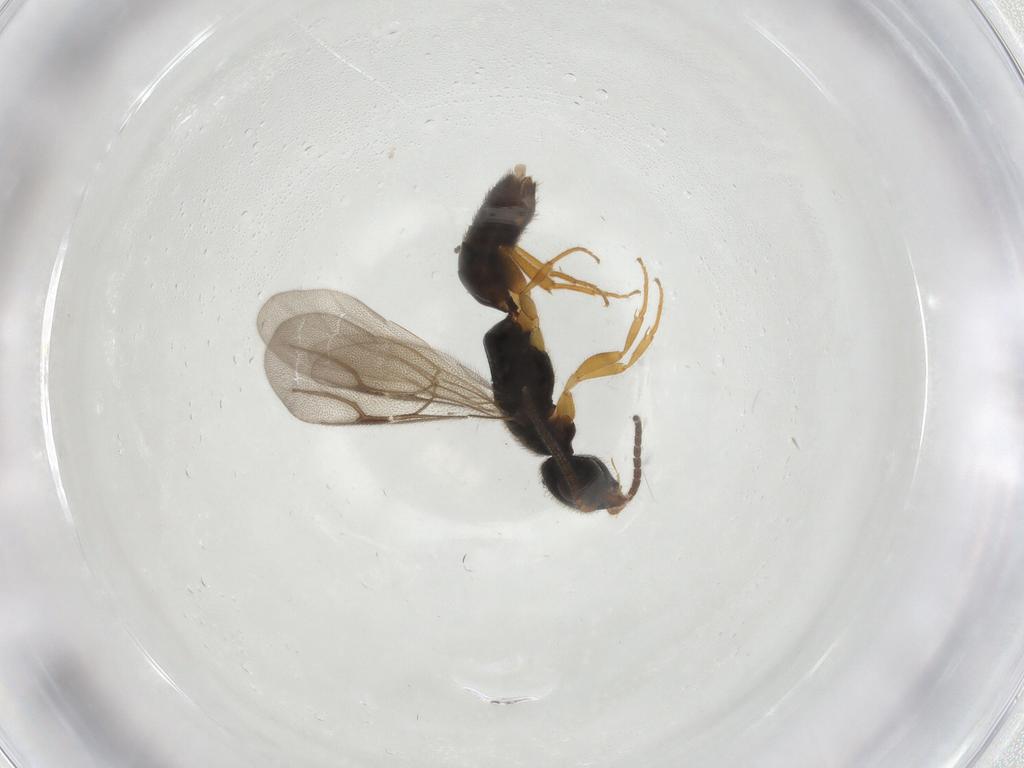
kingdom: Animalia
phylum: Arthropoda
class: Insecta
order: Hymenoptera
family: Bethylidae
